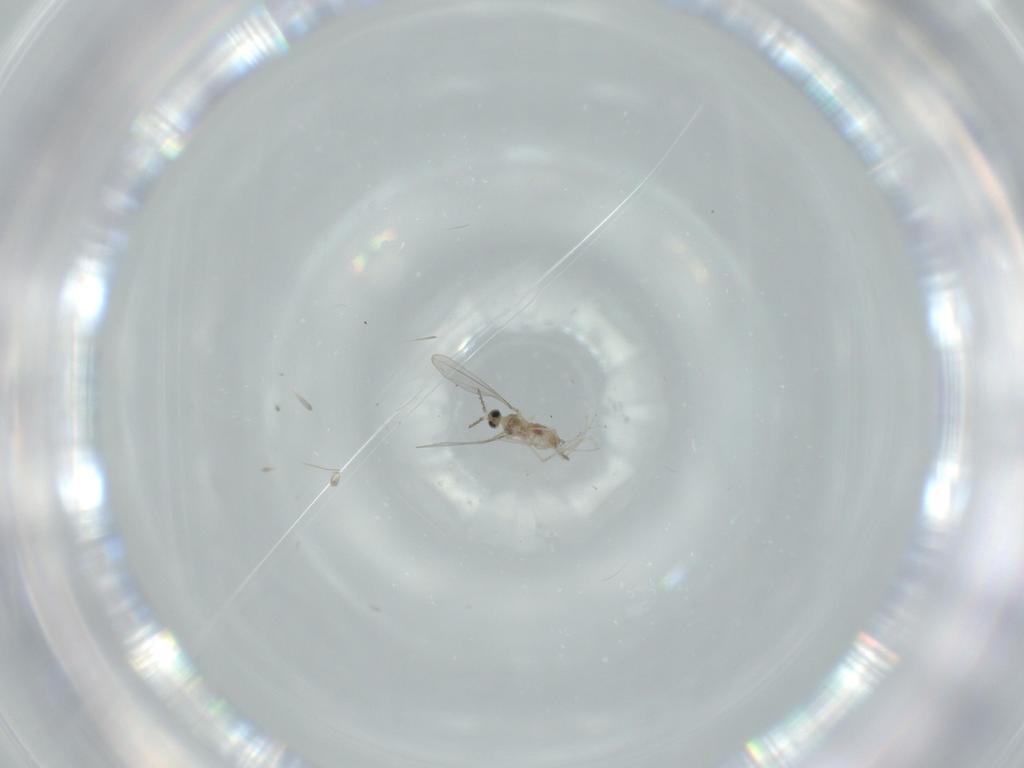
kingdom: Animalia
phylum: Arthropoda
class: Insecta
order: Diptera
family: Cecidomyiidae
